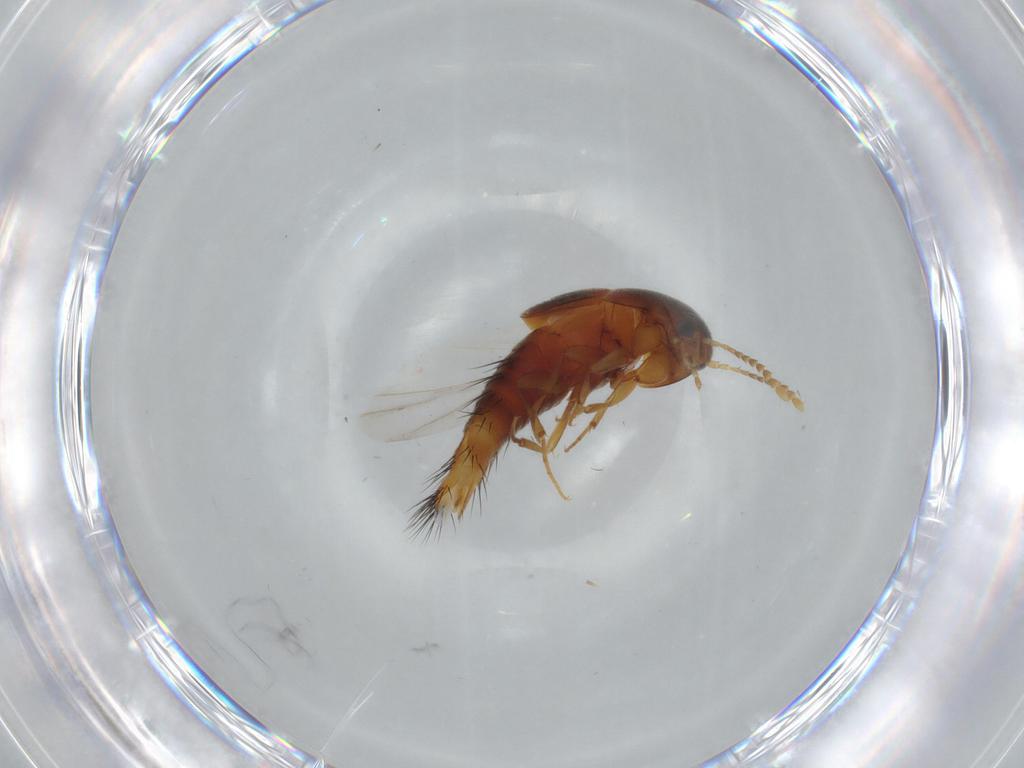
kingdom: Animalia
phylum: Arthropoda
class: Insecta
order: Coleoptera
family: Staphylinidae
